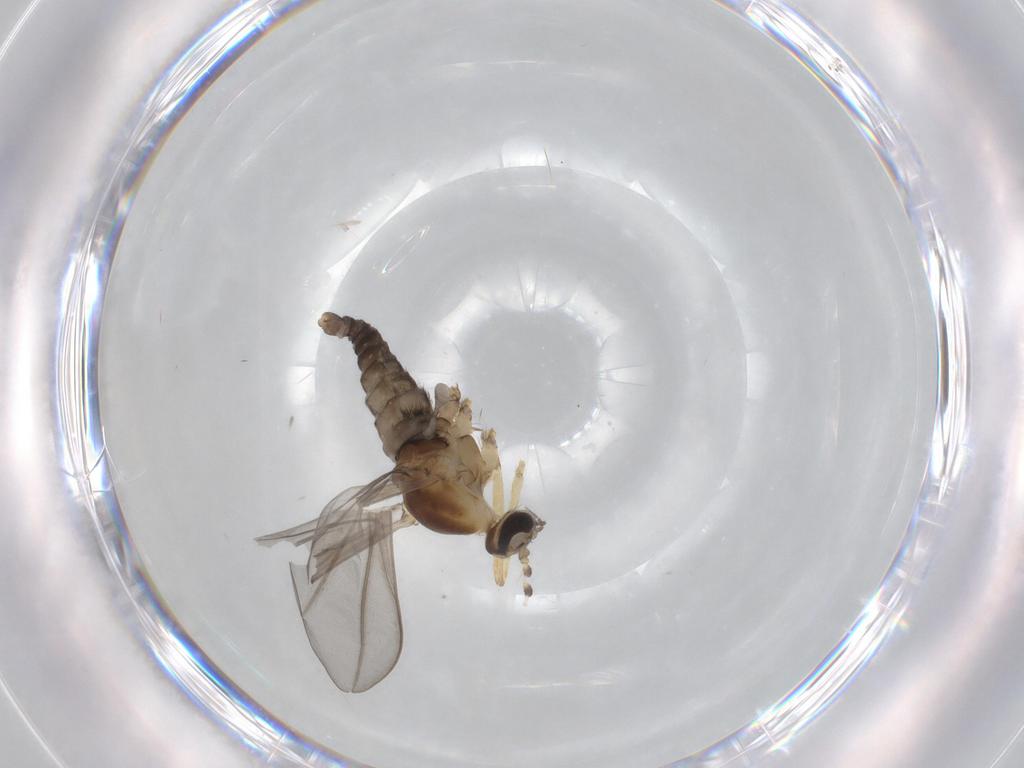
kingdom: Animalia
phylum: Arthropoda
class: Insecta
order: Diptera
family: Cecidomyiidae
